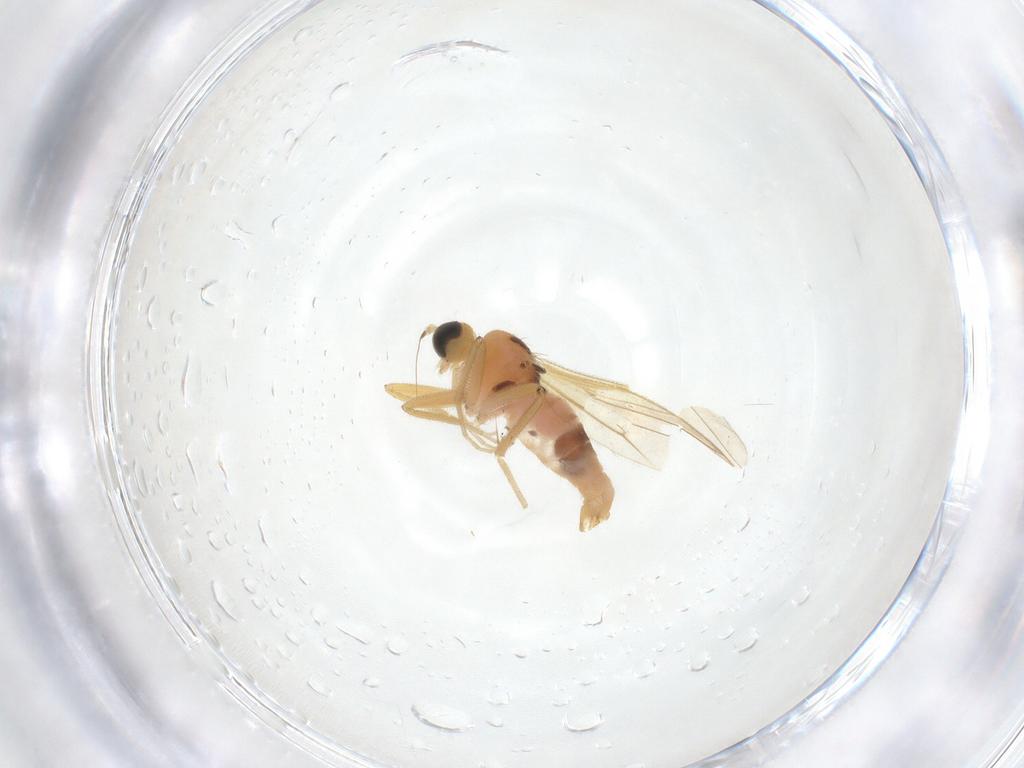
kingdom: Animalia
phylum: Arthropoda
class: Insecta
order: Diptera
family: Hybotidae
